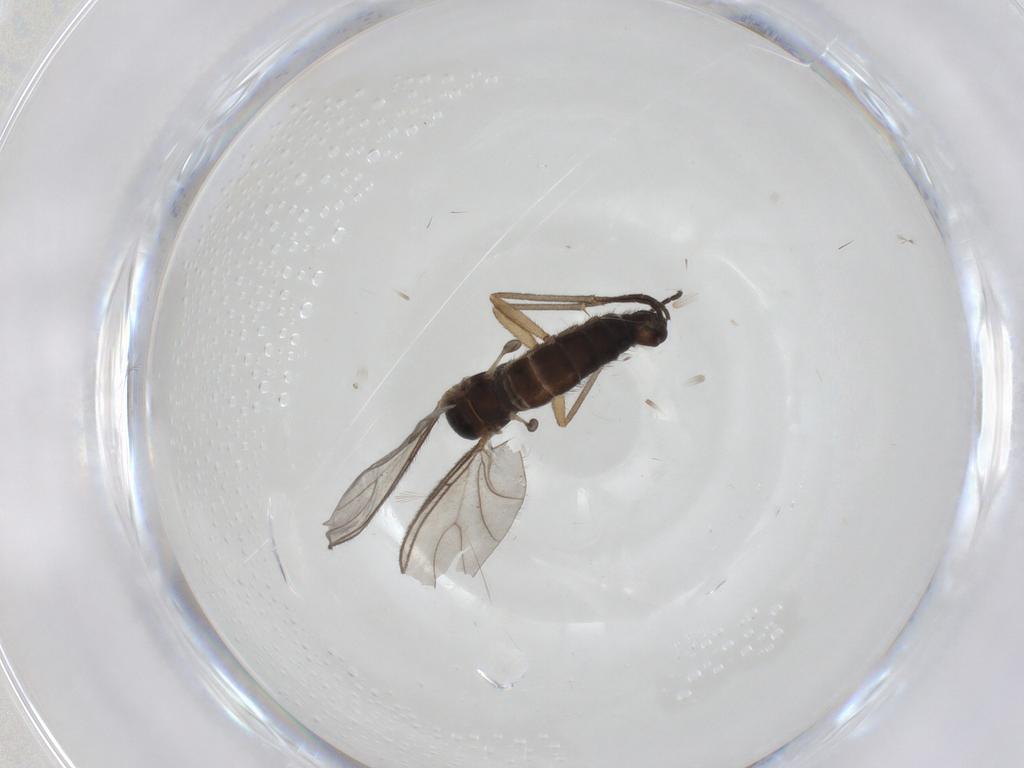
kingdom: Animalia
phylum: Arthropoda
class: Insecta
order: Diptera
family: Sciaridae
